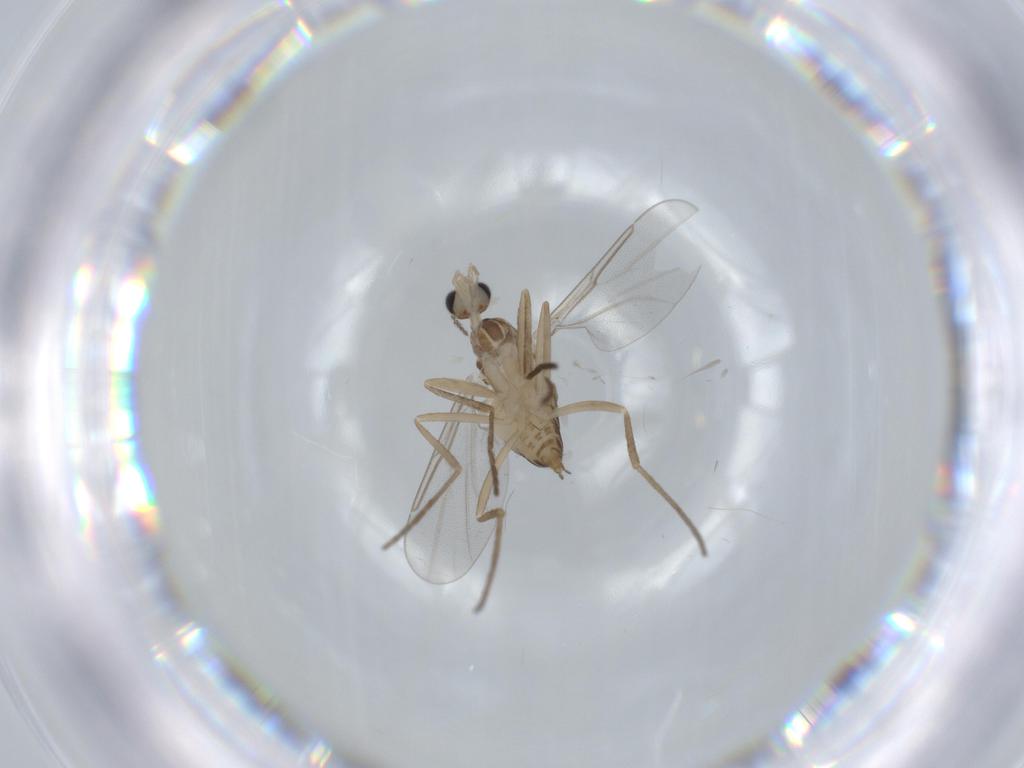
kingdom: Animalia
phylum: Arthropoda
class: Insecta
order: Diptera
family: Cecidomyiidae
